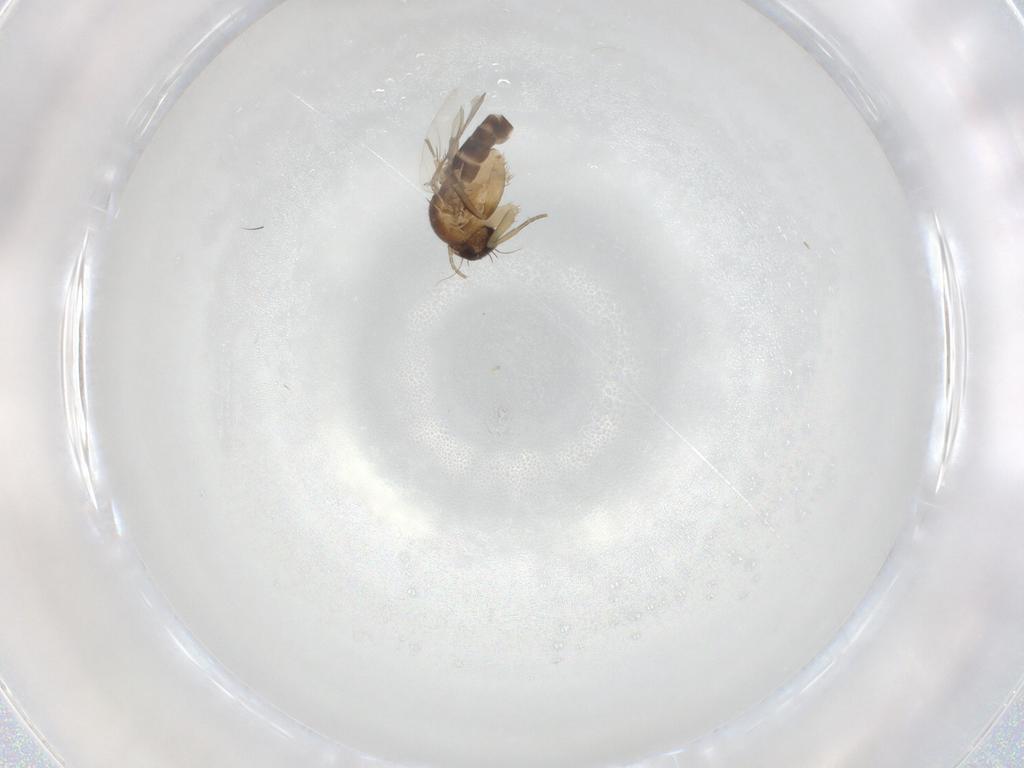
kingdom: Animalia
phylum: Arthropoda
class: Insecta
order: Diptera
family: Phoridae
